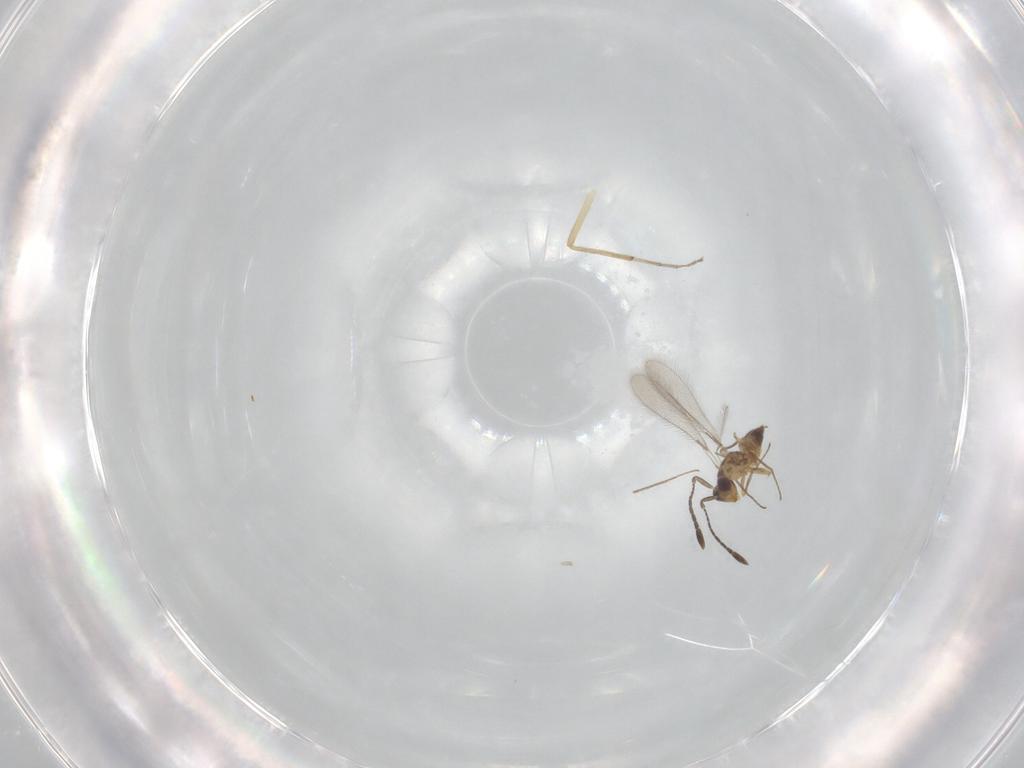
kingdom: Animalia
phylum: Arthropoda
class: Insecta
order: Hymenoptera
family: Mymaridae
